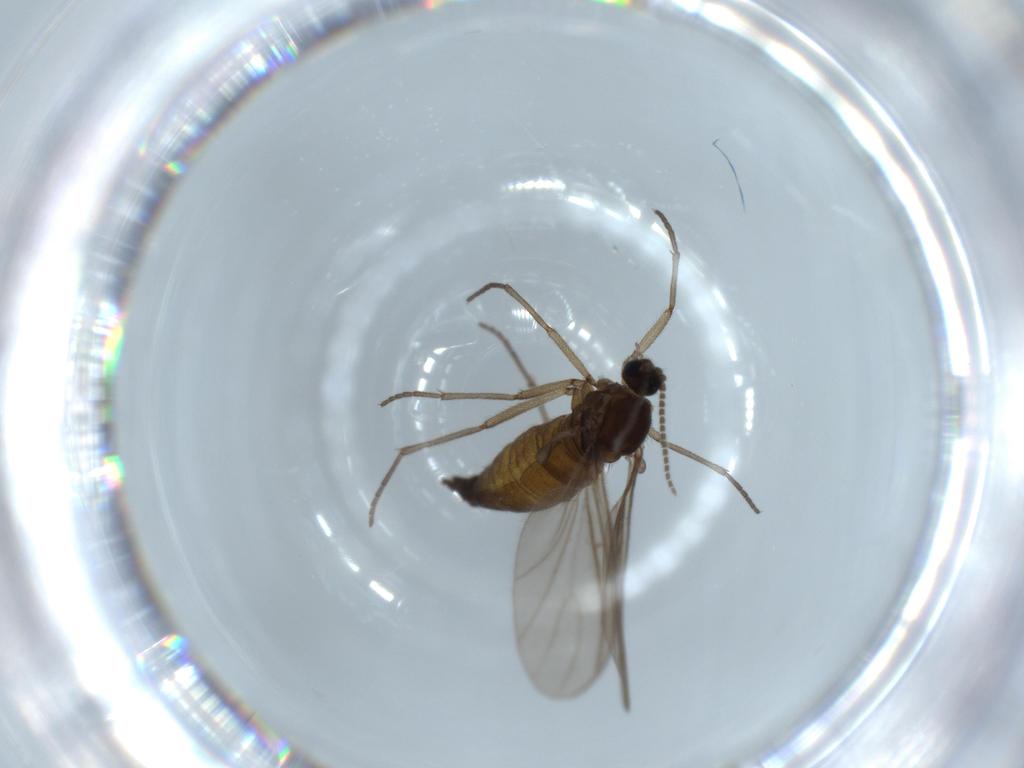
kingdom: Animalia
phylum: Arthropoda
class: Insecta
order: Diptera
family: Sciaridae
